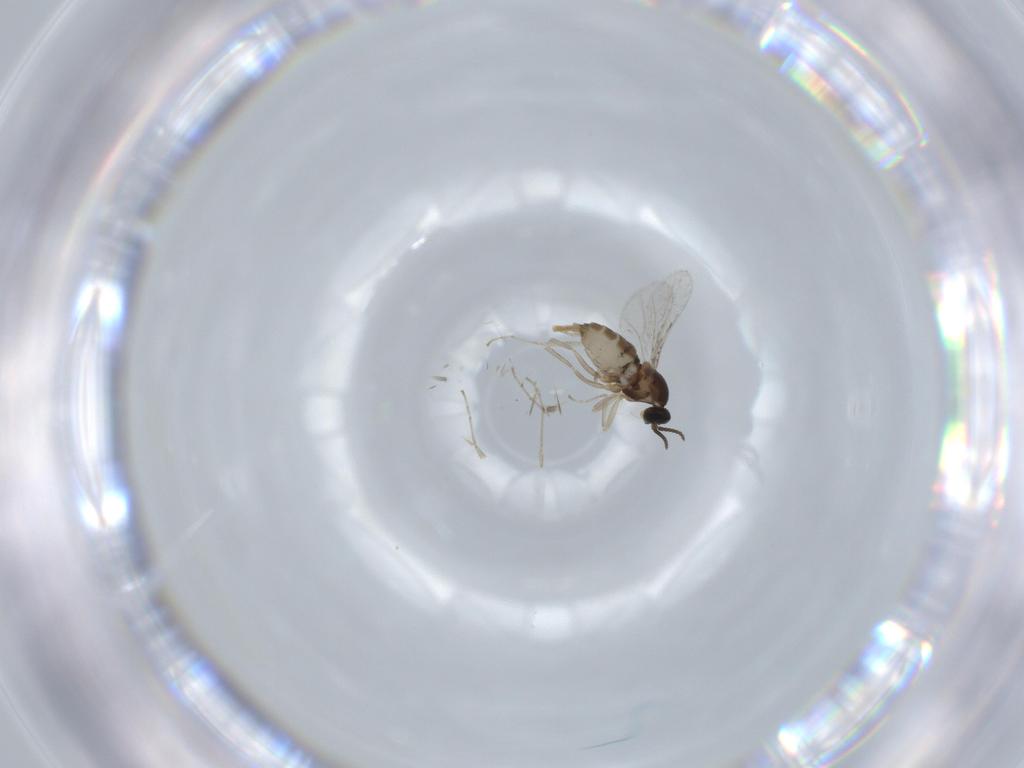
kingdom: Animalia
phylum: Arthropoda
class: Insecta
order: Diptera
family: Cecidomyiidae
